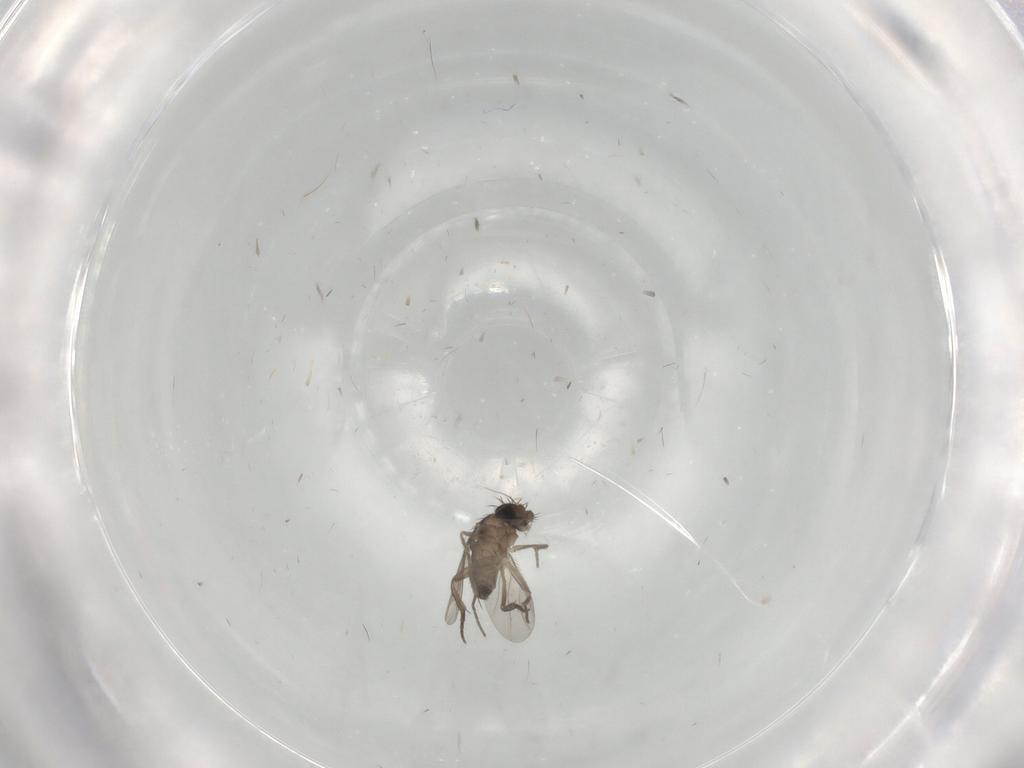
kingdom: Animalia
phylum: Arthropoda
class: Insecta
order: Diptera
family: Phoridae
